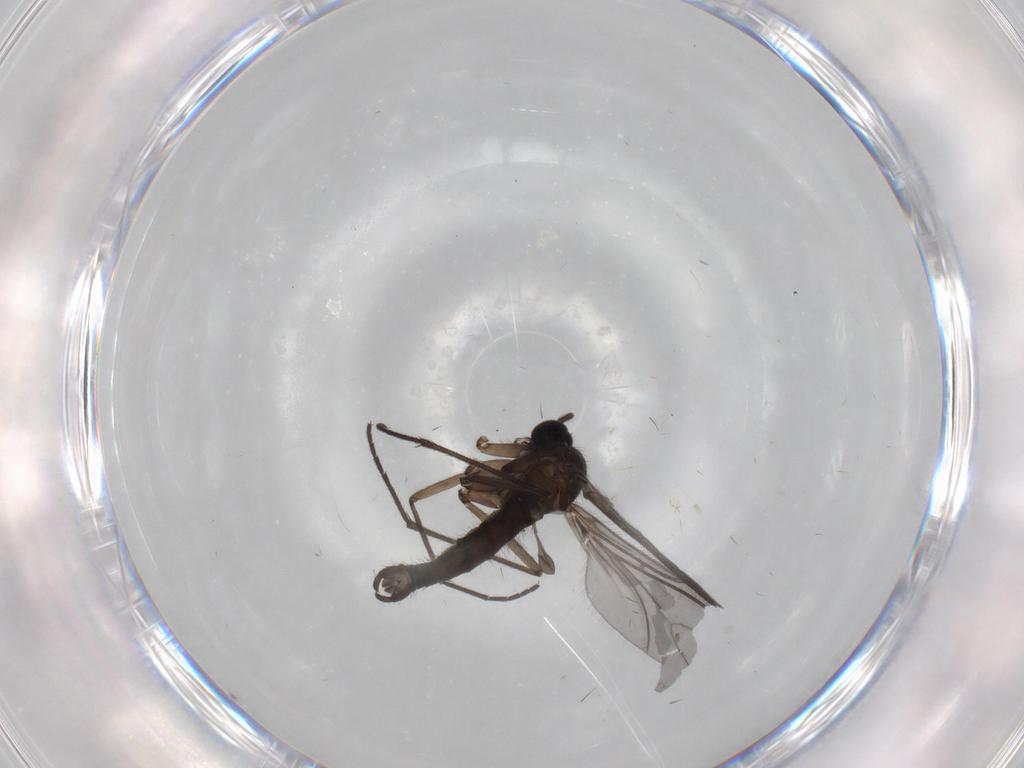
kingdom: Animalia
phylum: Arthropoda
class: Insecta
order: Diptera
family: Sciaridae
